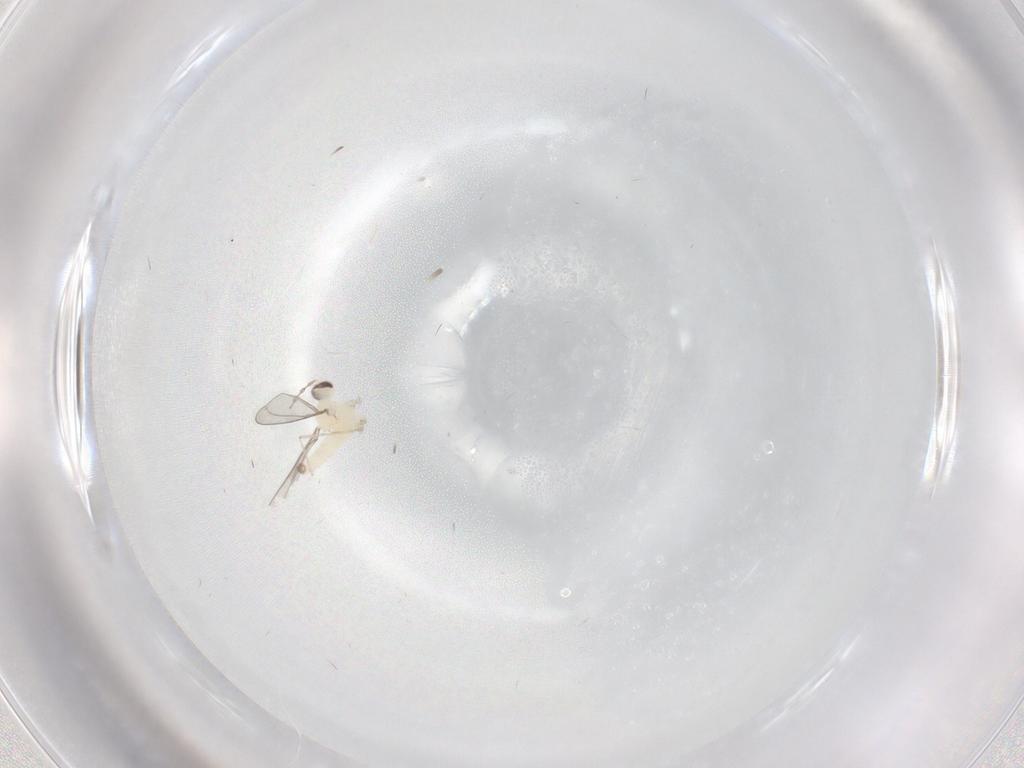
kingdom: Animalia
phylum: Arthropoda
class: Insecta
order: Diptera
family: Chironomidae
